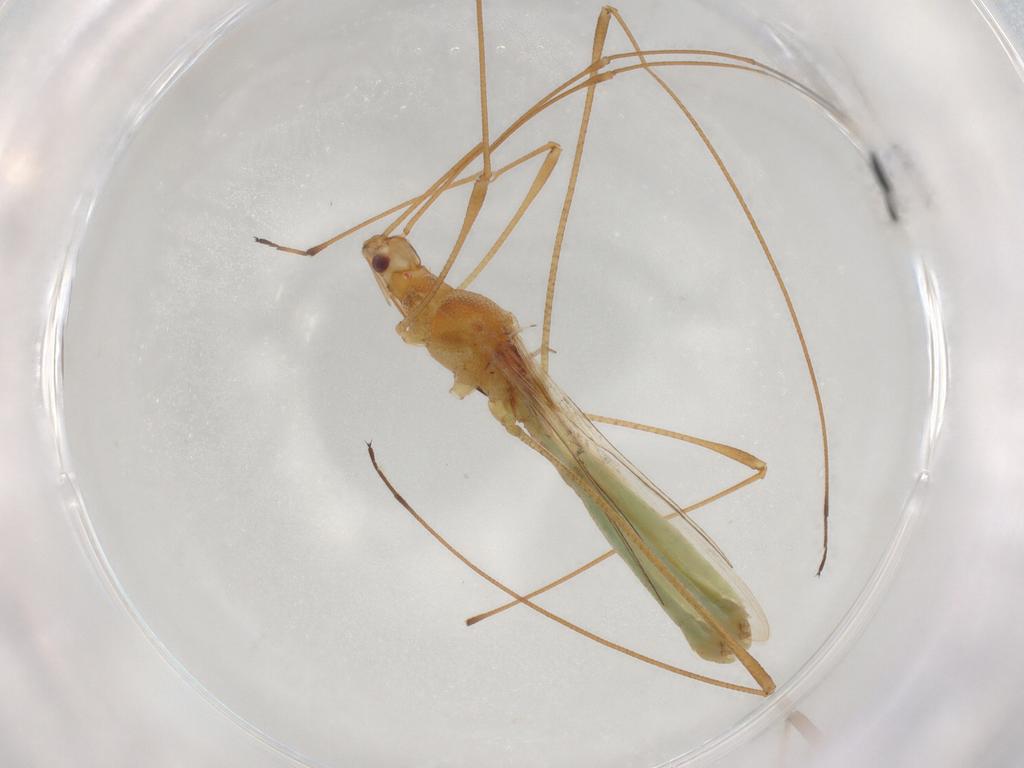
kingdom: Animalia
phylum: Arthropoda
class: Insecta
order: Hemiptera
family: Berytidae
